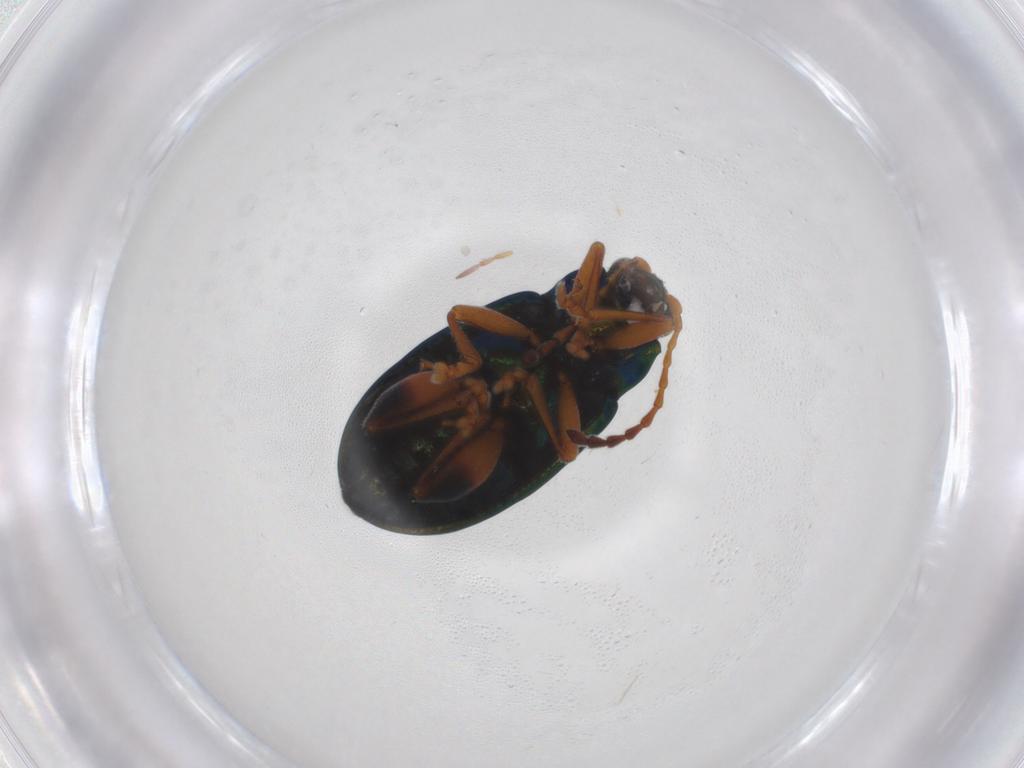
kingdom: Animalia
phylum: Arthropoda
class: Insecta
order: Coleoptera
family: Chrysomelidae
